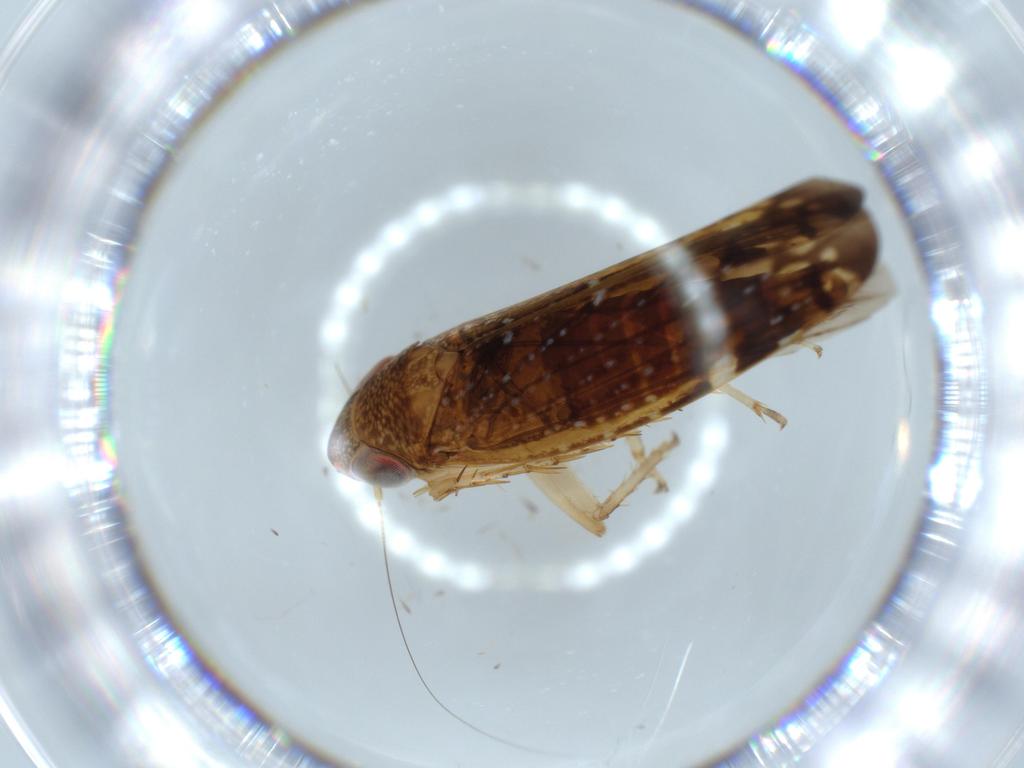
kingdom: Animalia
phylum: Arthropoda
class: Insecta
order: Hemiptera
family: Cicadellidae
